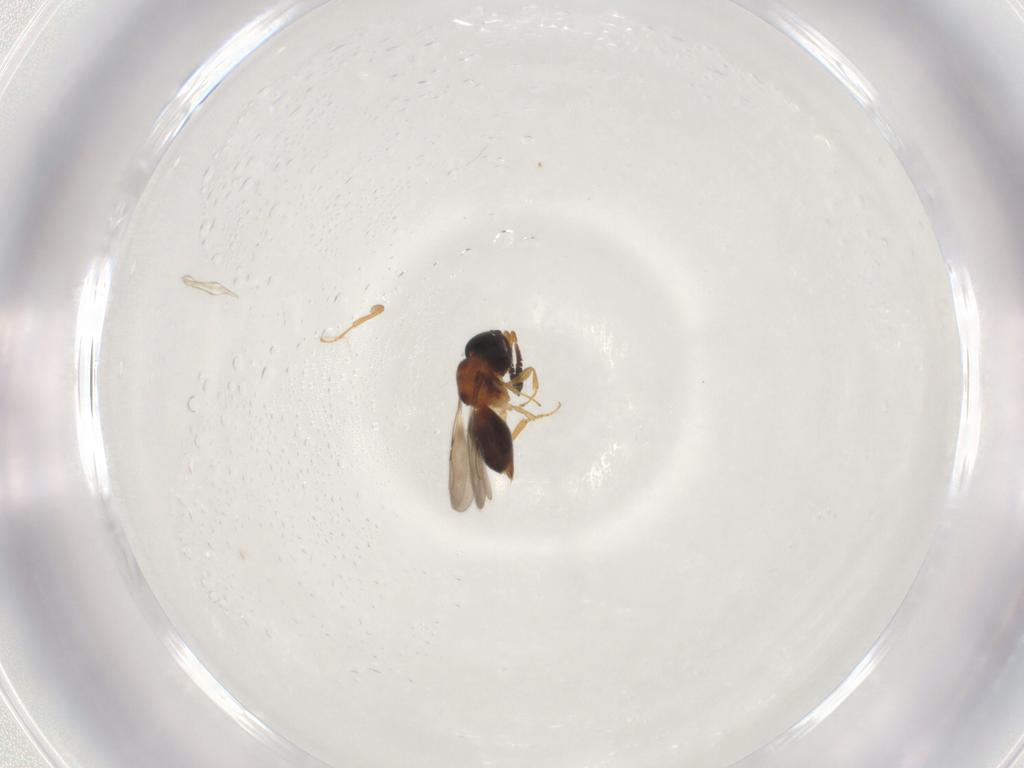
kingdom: Animalia
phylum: Arthropoda
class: Insecta
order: Hymenoptera
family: Ceraphronidae
